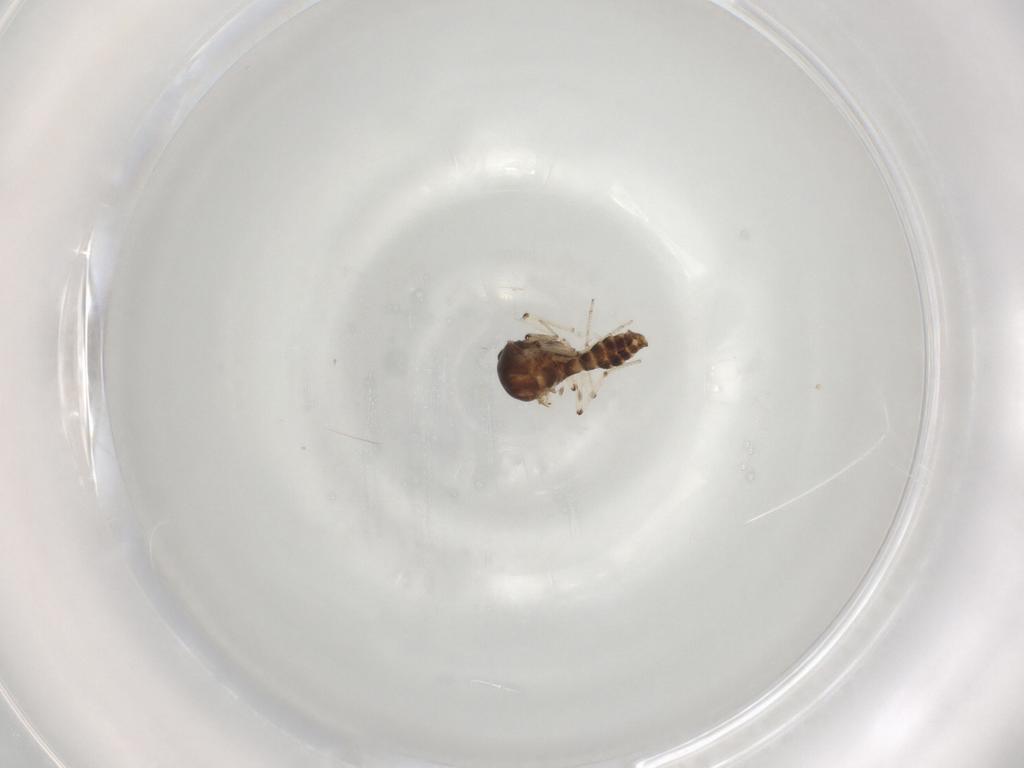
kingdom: Animalia
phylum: Arthropoda
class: Insecta
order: Diptera
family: Ceratopogonidae
